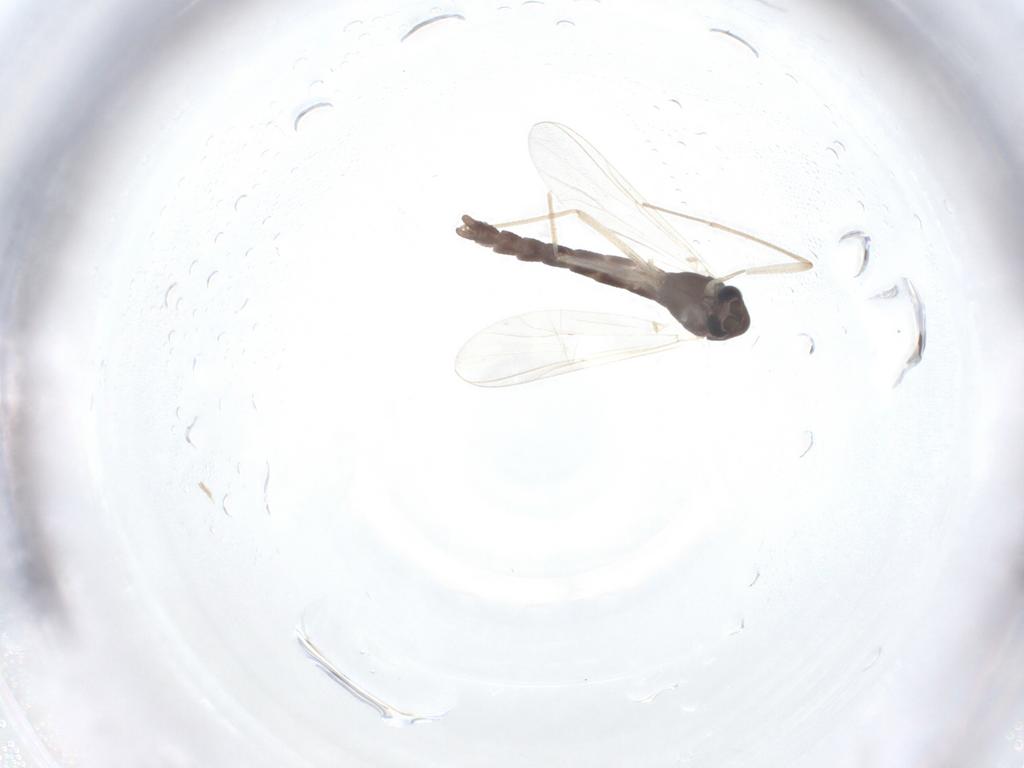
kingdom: Animalia
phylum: Arthropoda
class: Insecta
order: Diptera
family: Chironomidae
